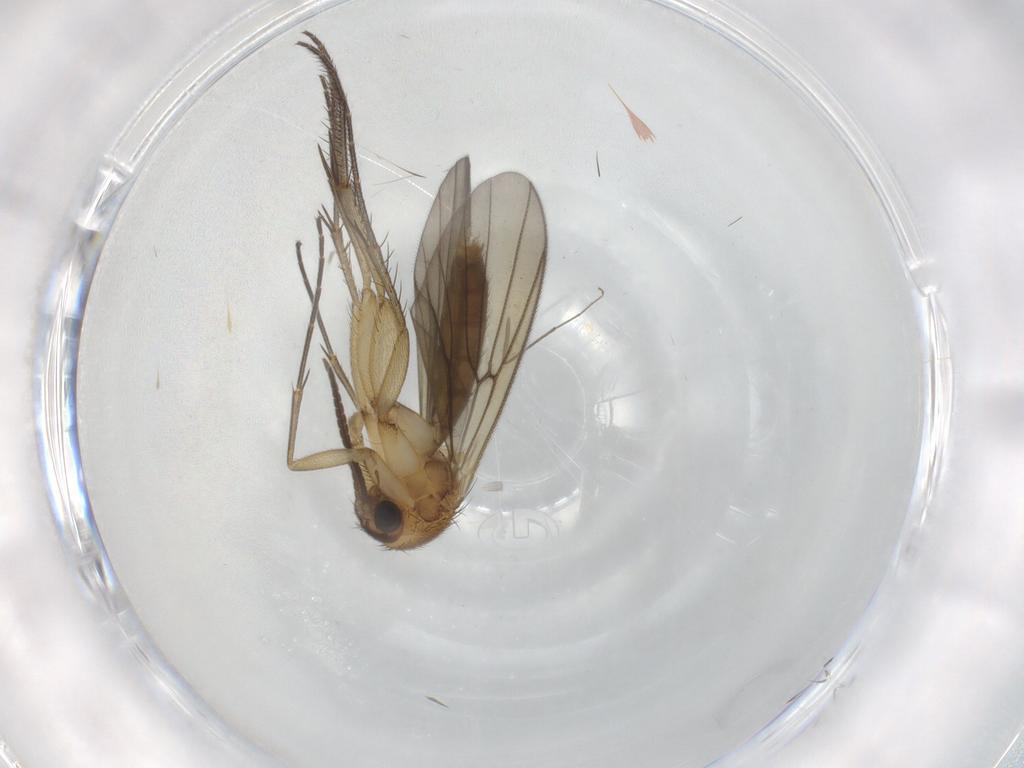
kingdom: Animalia
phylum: Arthropoda
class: Insecta
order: Diptera
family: Mycetophilidae
